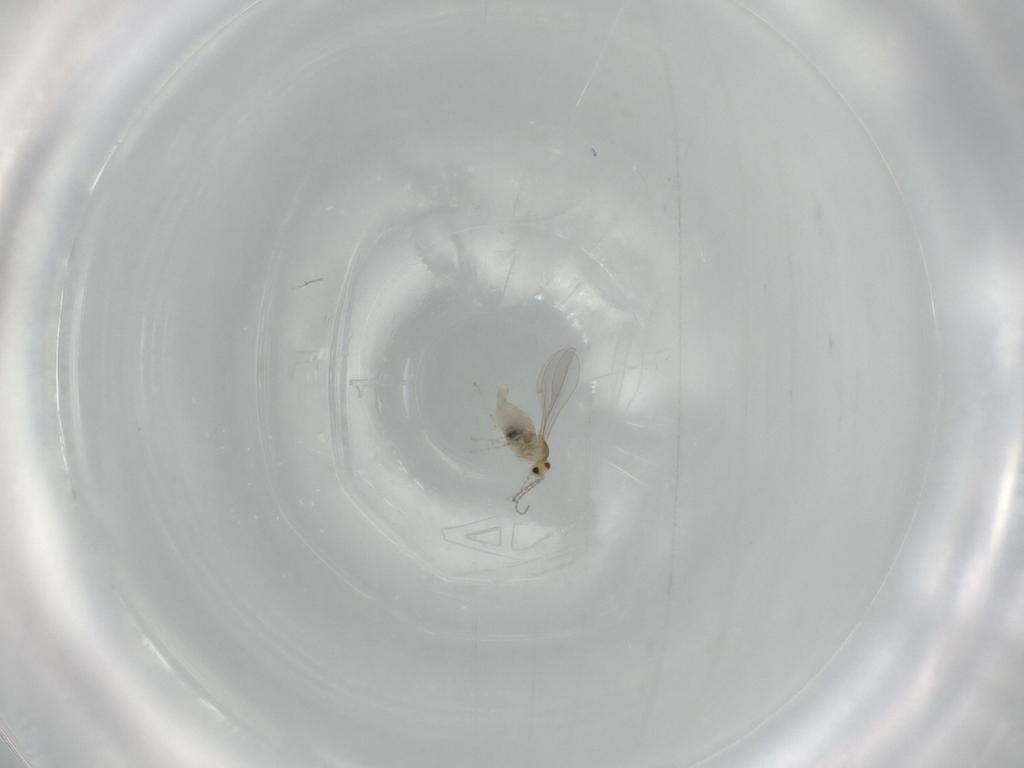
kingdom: Animalia
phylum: Arthropoda
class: Insecta
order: Diptera
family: Cecidomyiidae
